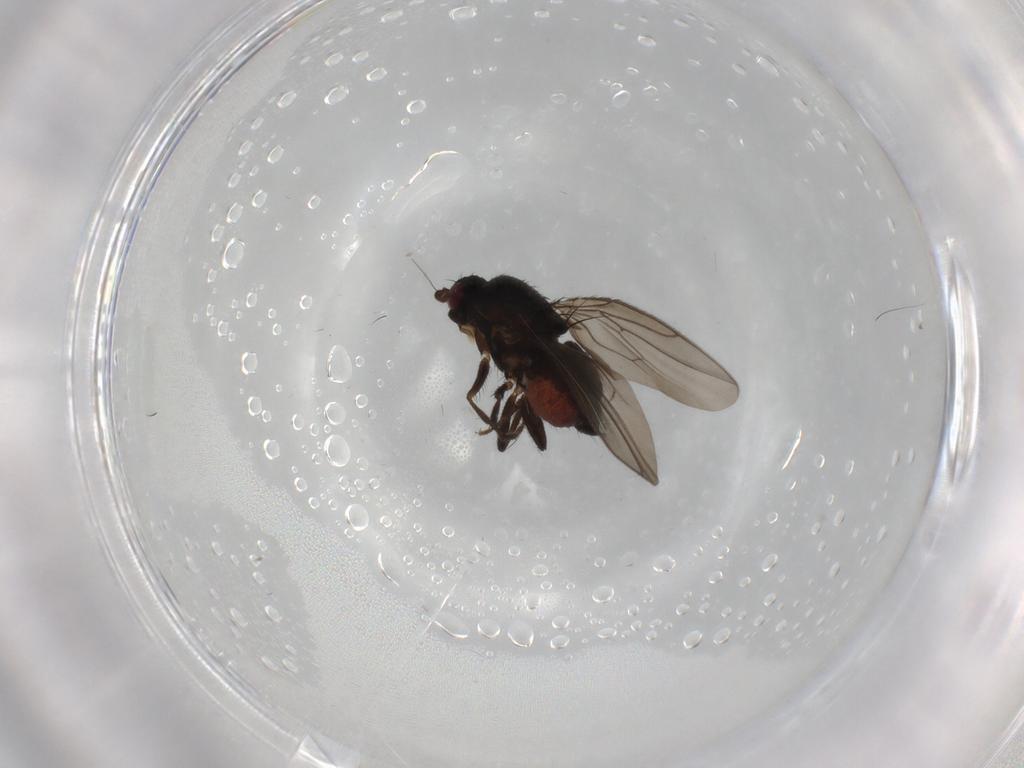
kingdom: Animalia
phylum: Arthropoda
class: Insecta
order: Diptera
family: Sphaeroceridae
